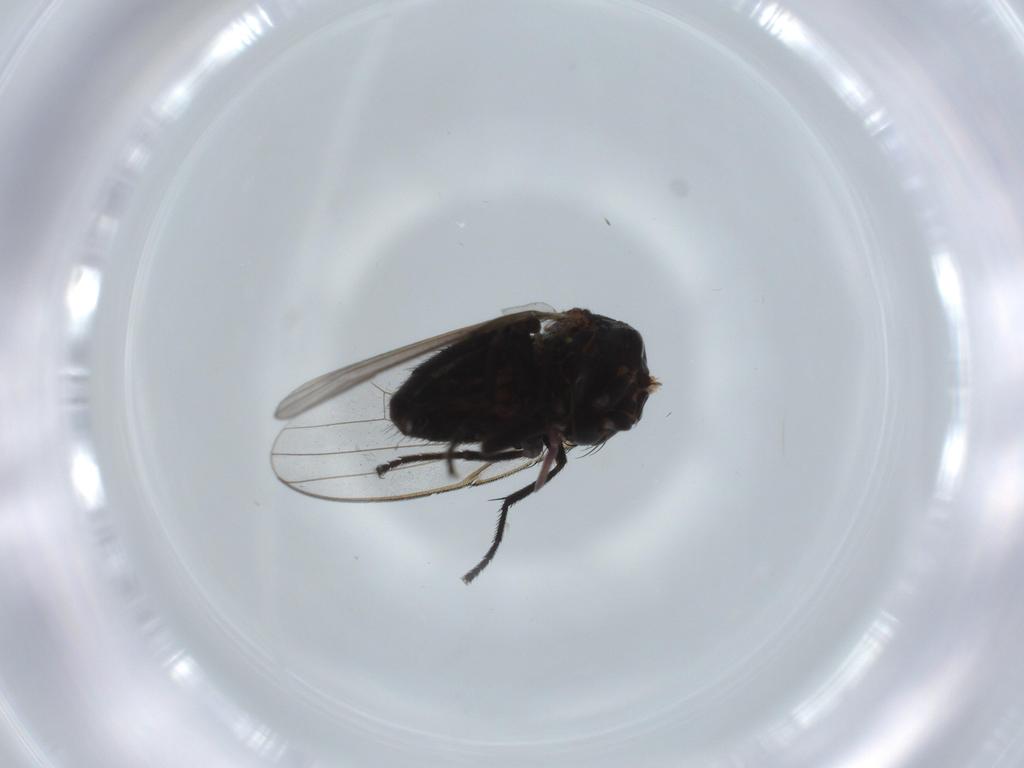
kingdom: Animalia
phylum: Arthropoda
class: Insecta
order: Diptera
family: Milichiidae
